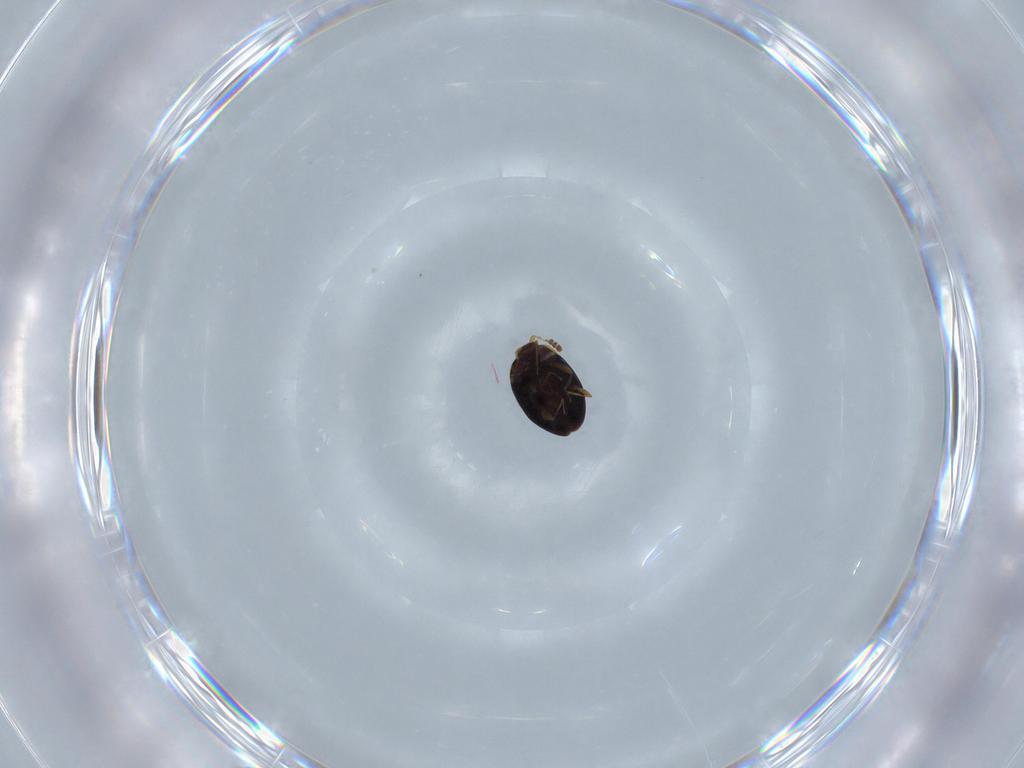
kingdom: Animalia
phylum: Arthropoda
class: Insecta
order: Coleoptera
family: Corylophidae
